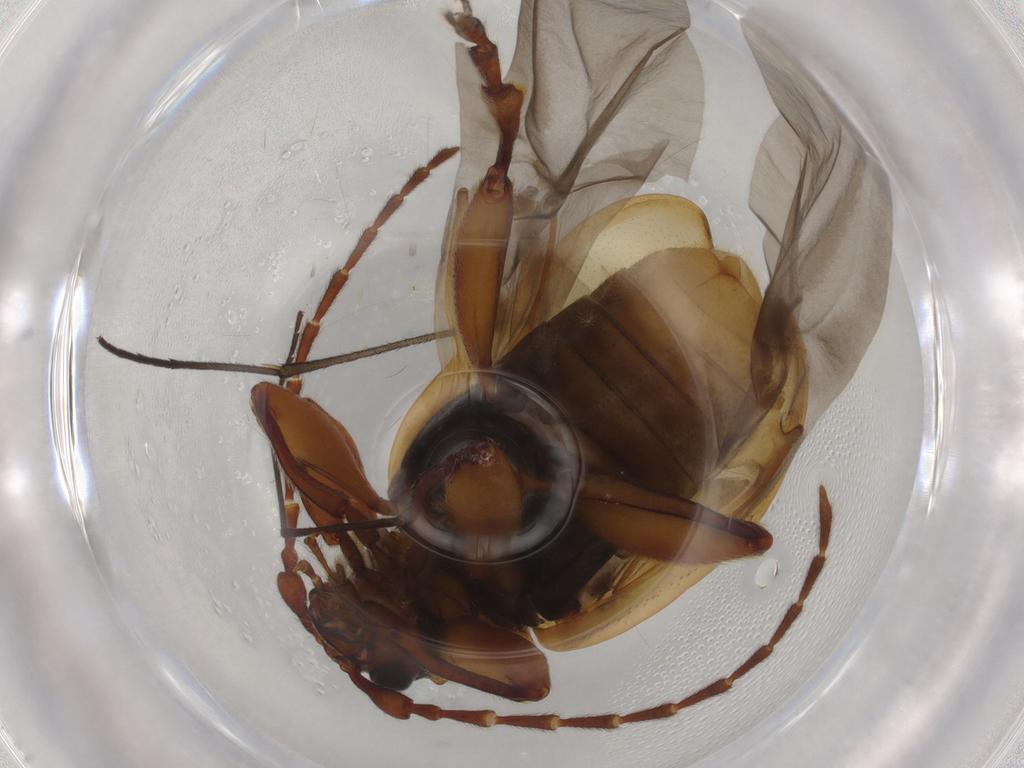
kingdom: Animalia
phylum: Arthropoda
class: Insecta
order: Coleoptera
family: Chrysomelidae
